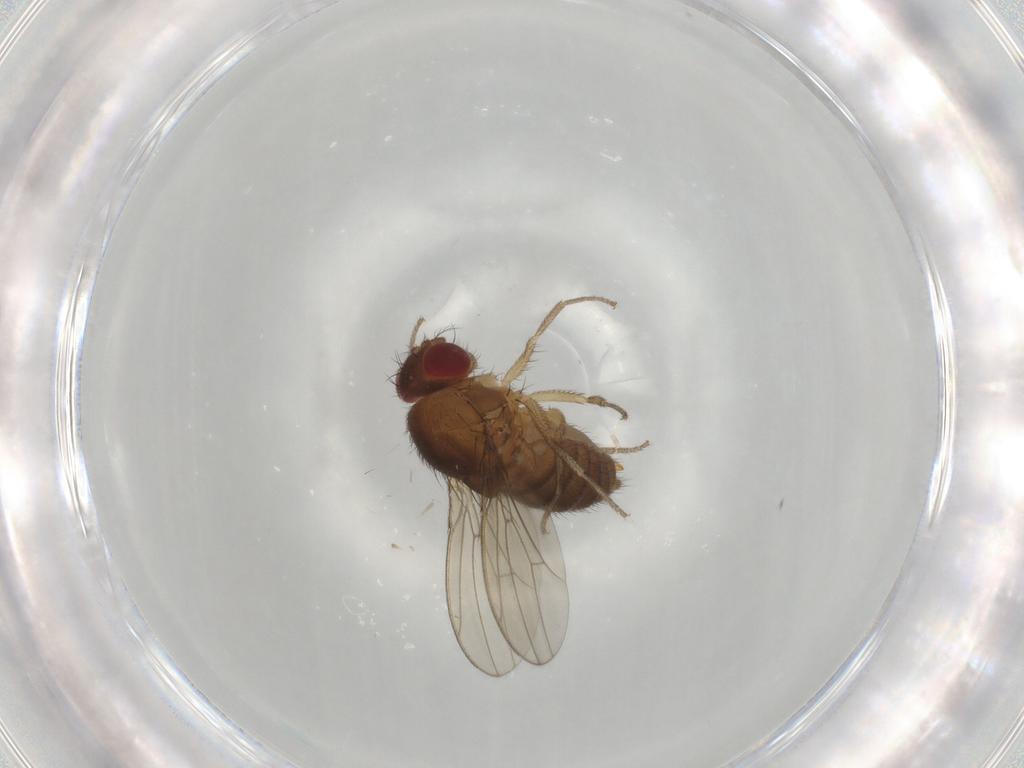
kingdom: Animalia
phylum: Arthropoda
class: Insecta
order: Diptera
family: Drosophilidae
